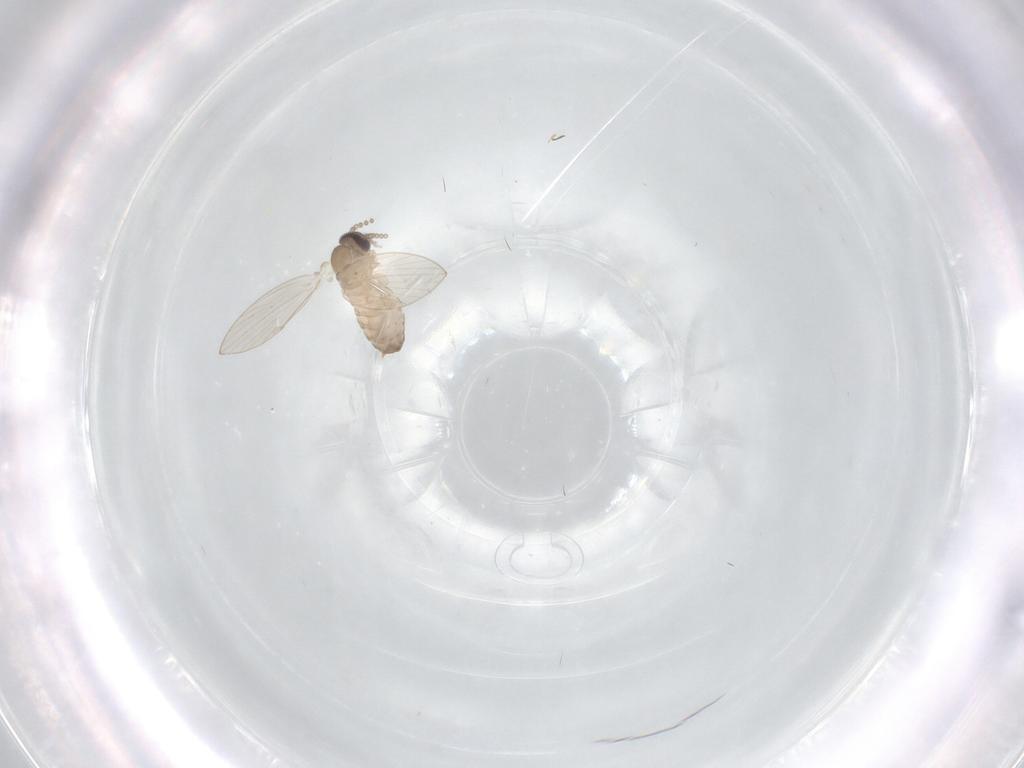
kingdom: Animalia
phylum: Arthropoda
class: Insecta
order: Diptera
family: Psychodidae
